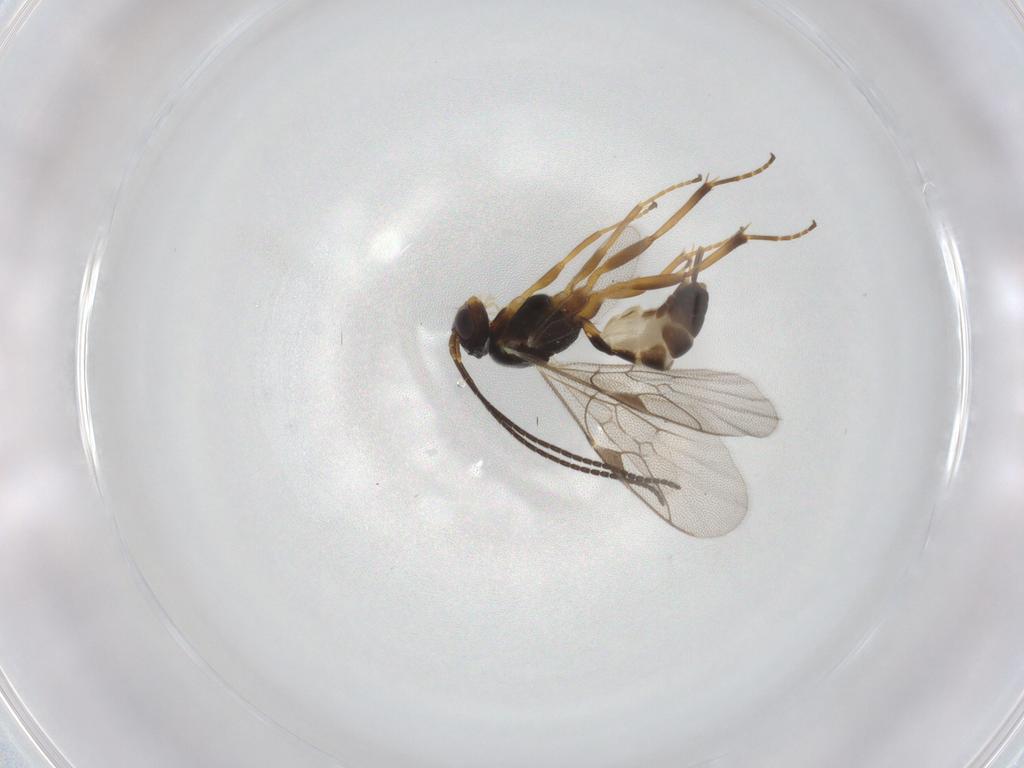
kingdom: Animalia
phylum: Arthropoda
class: Insecta
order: Hymenoptera
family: Ichneumonidae
